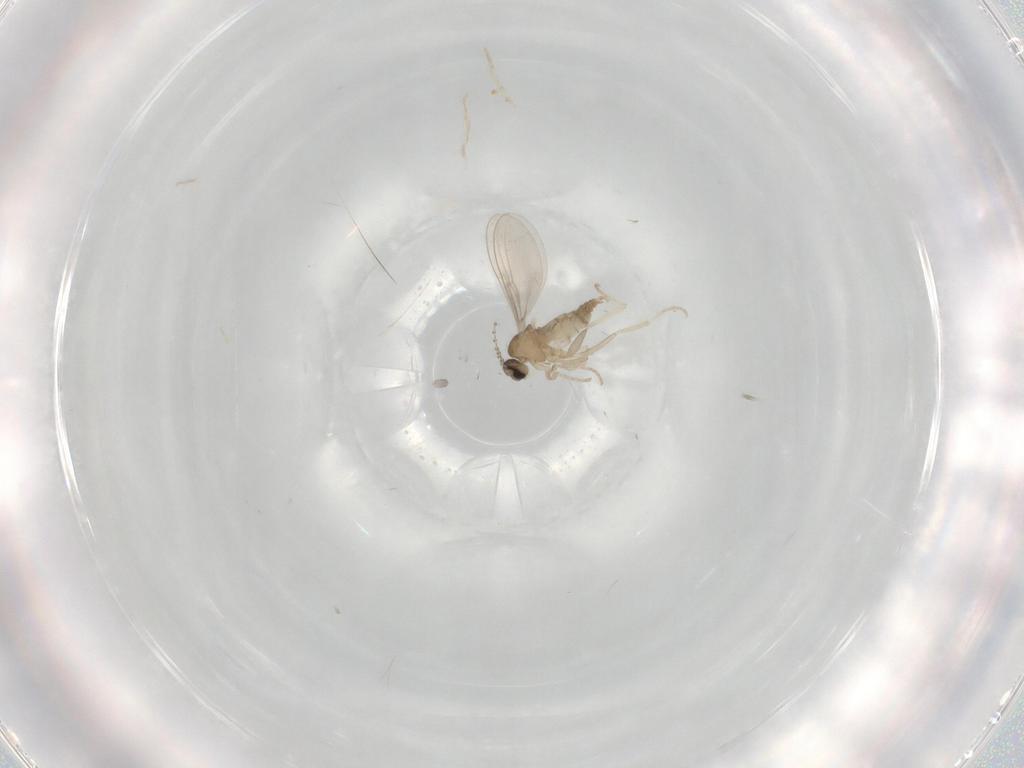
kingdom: Animalia
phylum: Arthropoda
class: Insecta
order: Diptera
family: Cecidomyiidae
